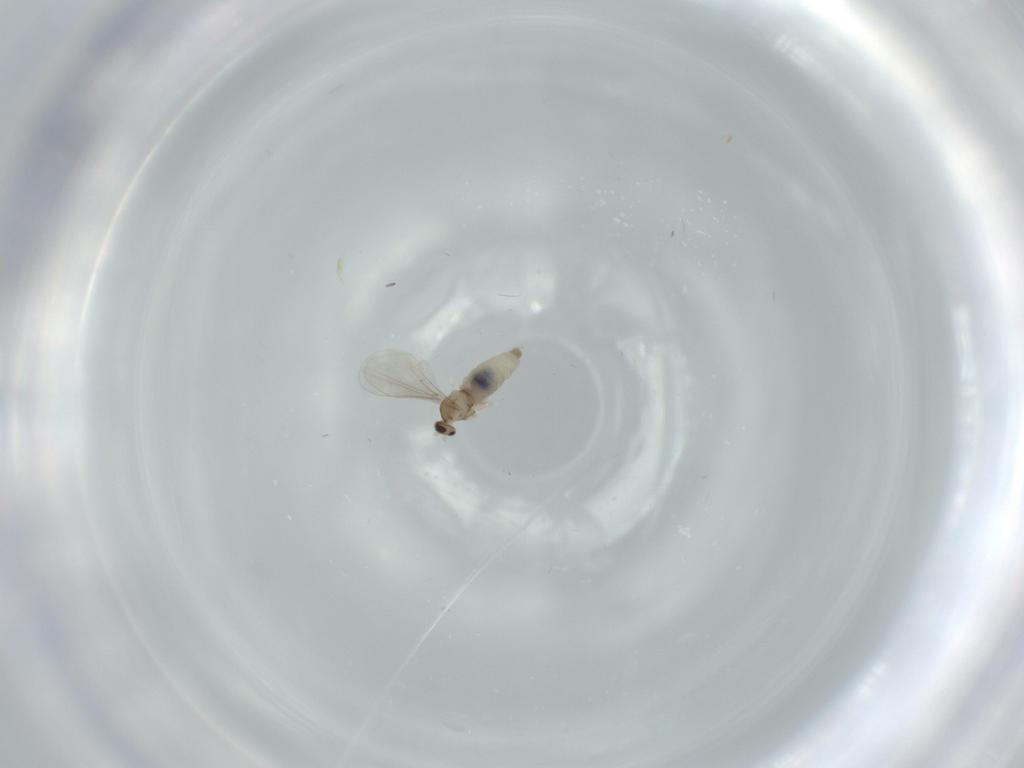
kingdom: Animalia
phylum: Arthropoda
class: Insecta
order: Diptera
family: Cecidomyiidae
